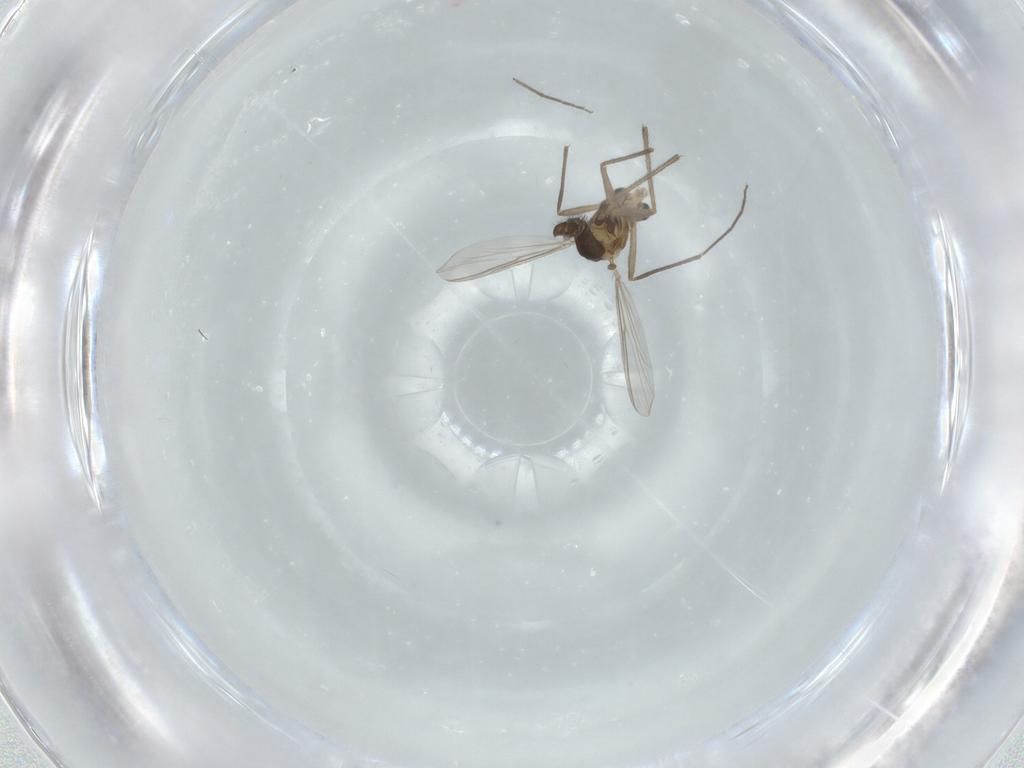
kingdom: Animalia
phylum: Arthropoda
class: Insecta
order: Diptera
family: Chironomidae
